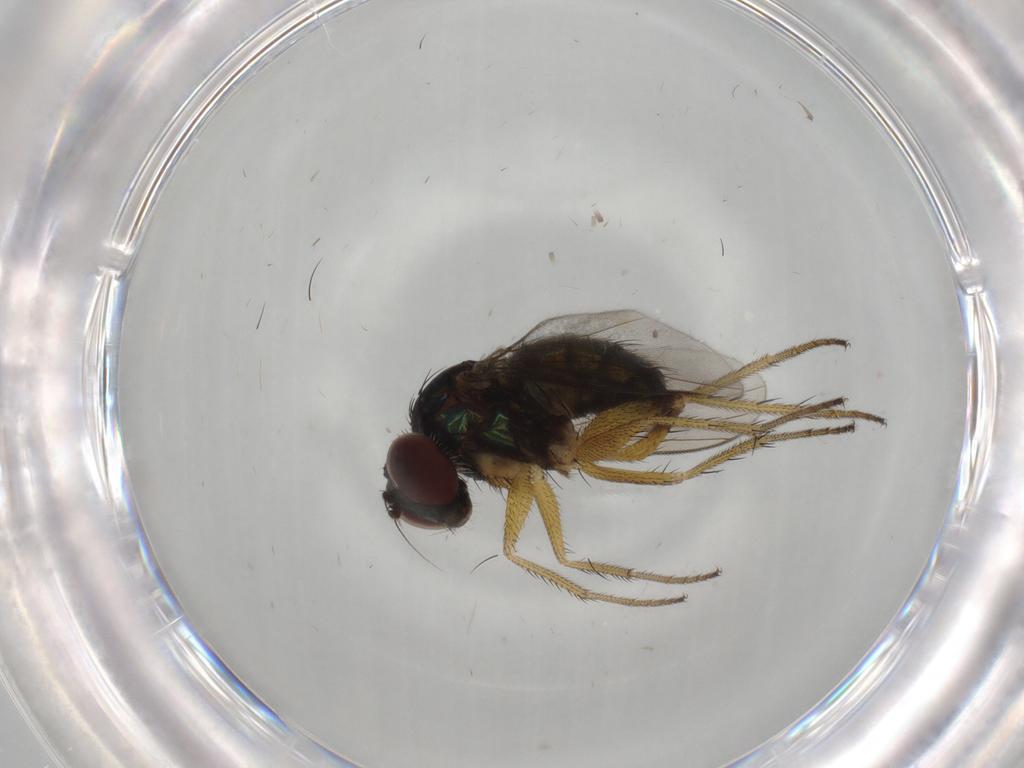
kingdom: Animalia
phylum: Arthropoda
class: Insecta
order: Diptera
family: Dolichopodidae
